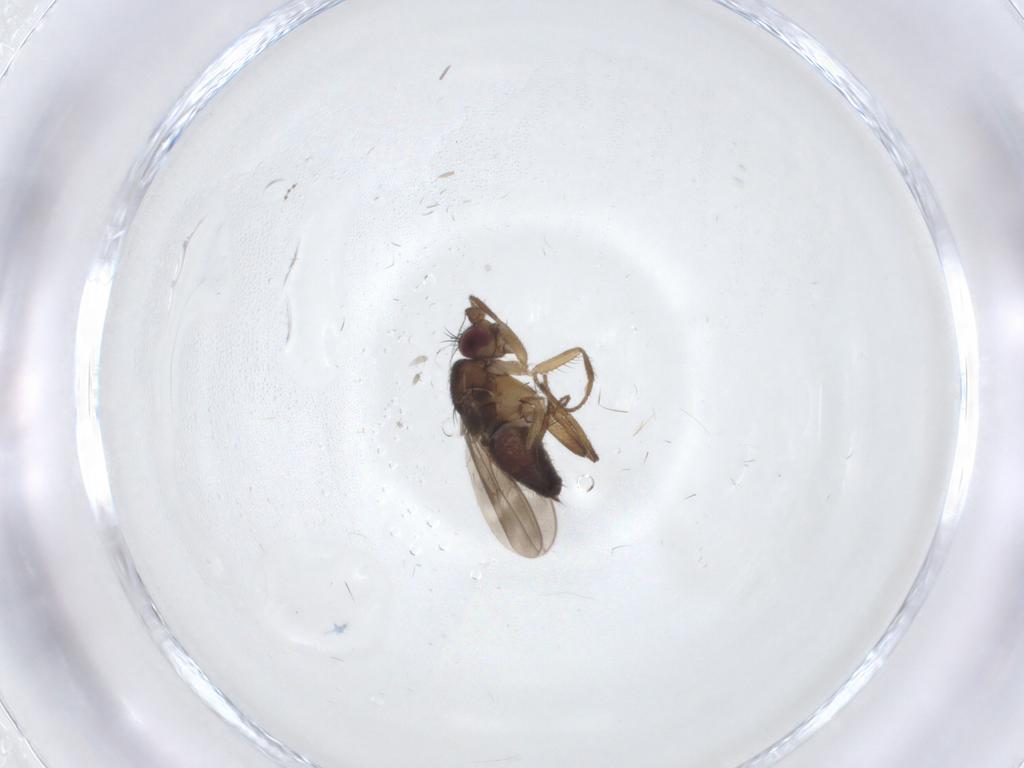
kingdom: Animalia
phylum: Arthropoda
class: Insecta
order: Diptera
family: Sphaeroceridae
